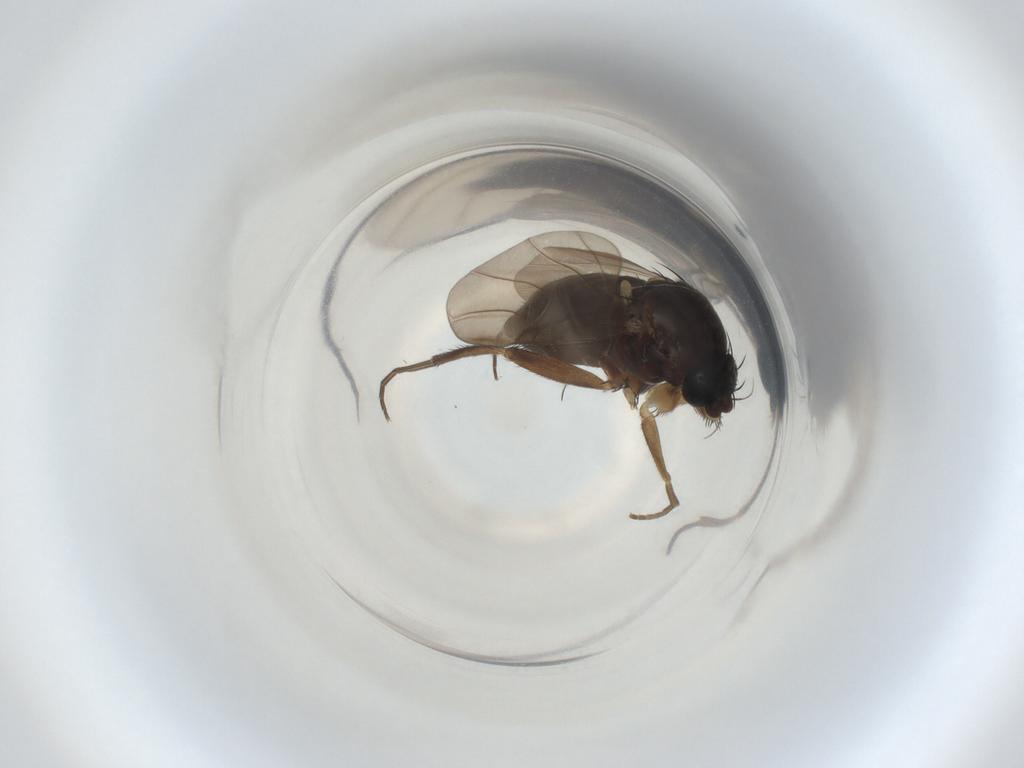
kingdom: Animalia
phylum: Arthropoda
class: Insecta
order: Diptera
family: Phoridae
